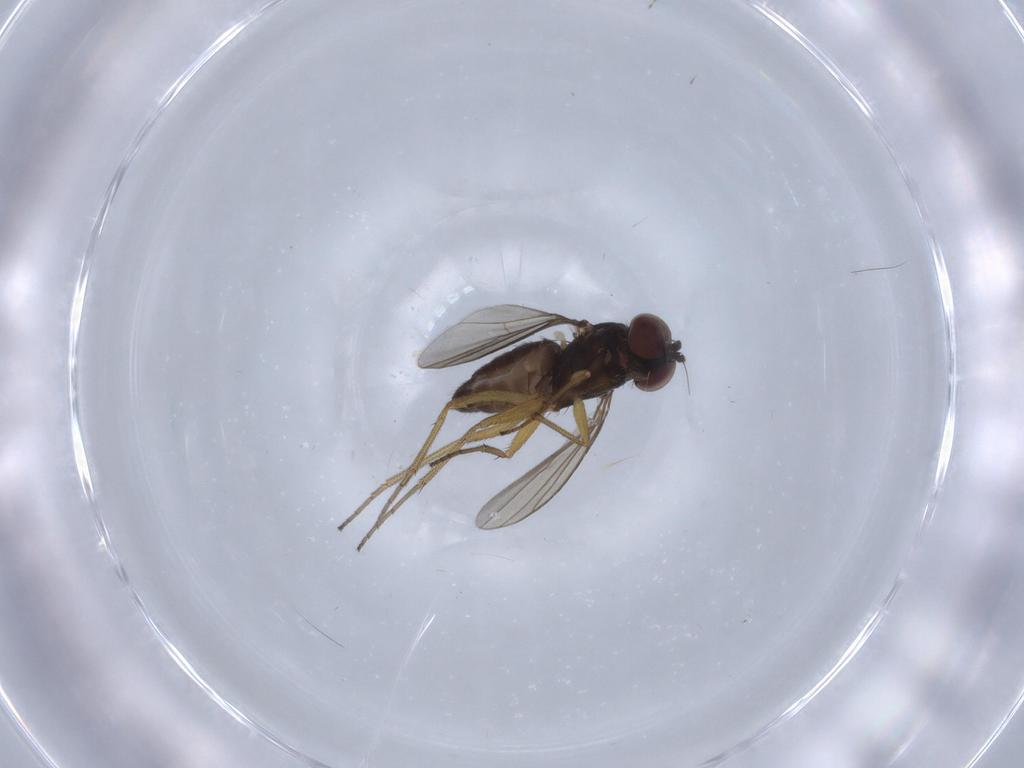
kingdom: Animalia
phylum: Arthropoda
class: Insecta
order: Diptera
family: Dolichopodidae
